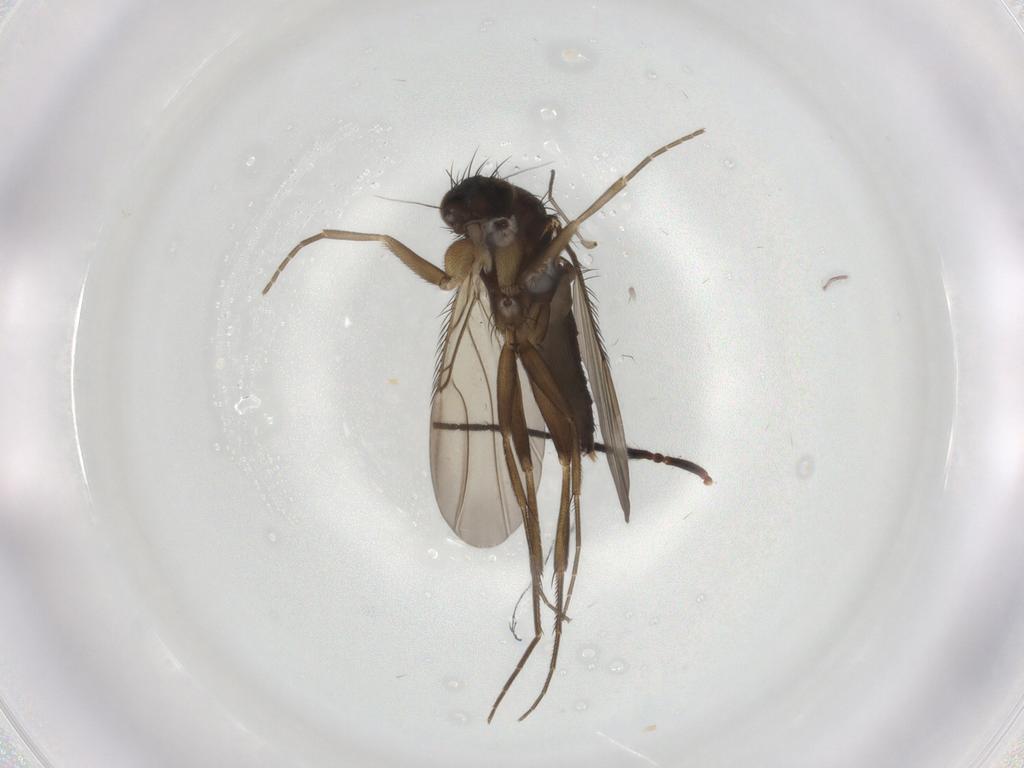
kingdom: Animalia
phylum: Arthropoda
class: Insecta
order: Diptera
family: Phoridae
